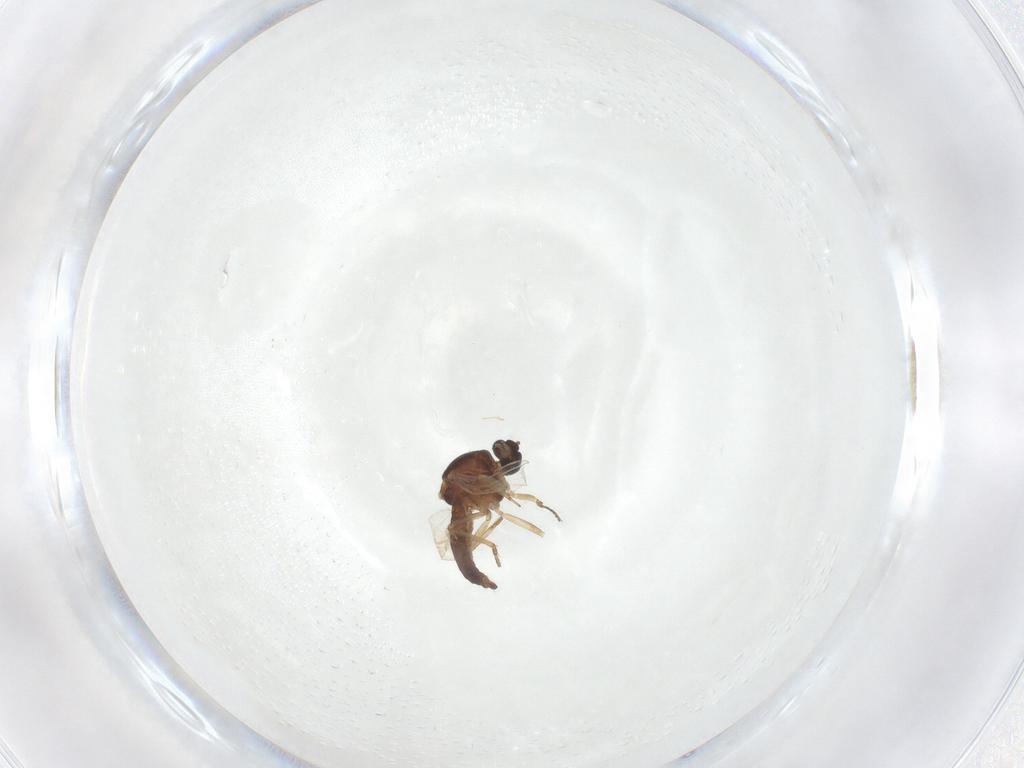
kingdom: Animalia
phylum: Arthropoda
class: Insecta
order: Diptera
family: Ceratopogonidae
